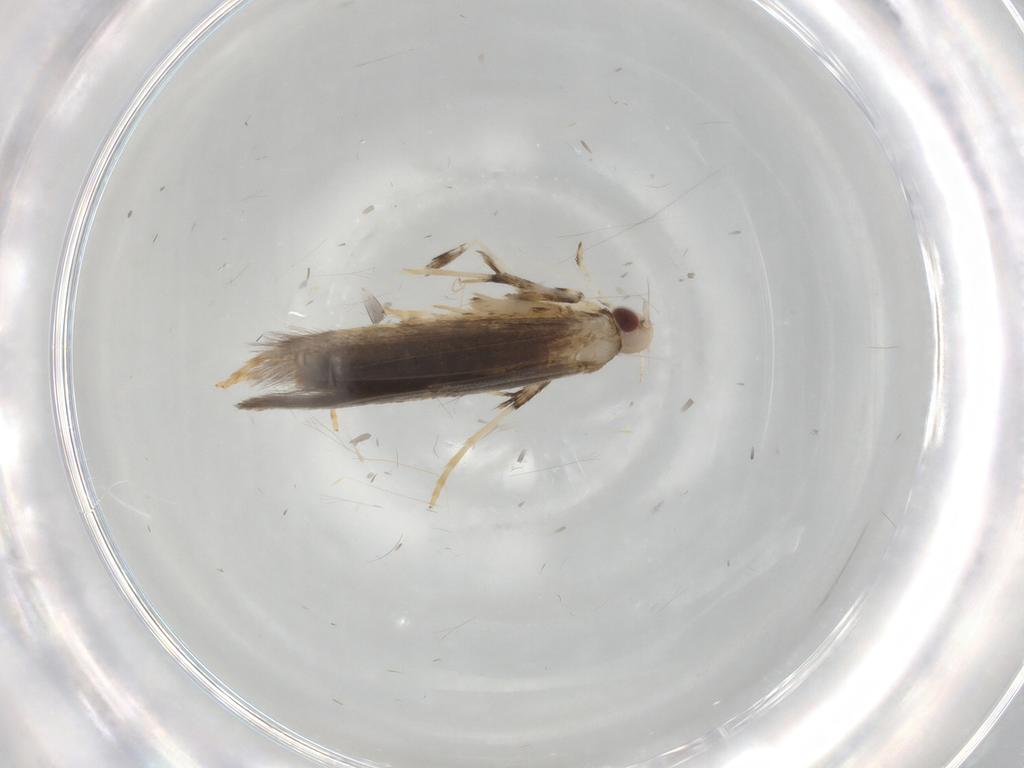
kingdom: Animalia
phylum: Arthropoda
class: Insecta
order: Lepidoptera
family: Gracillariidae
